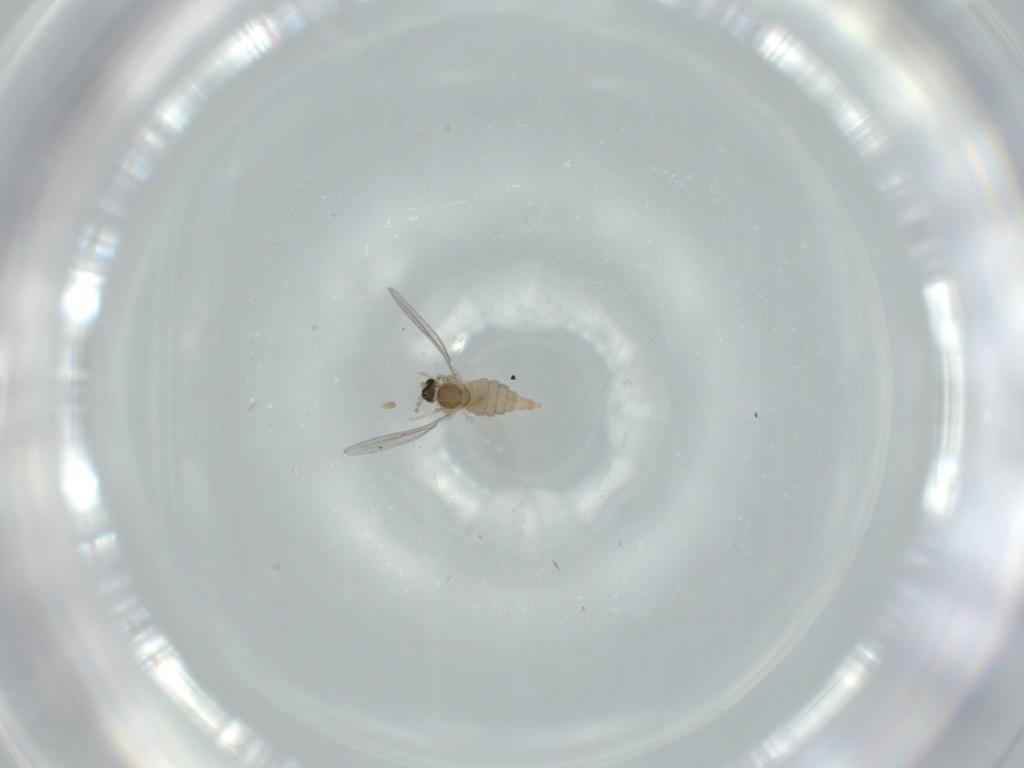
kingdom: Animalia
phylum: Arthropoda
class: Insecta
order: Diptera
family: Cecidomyiidae
